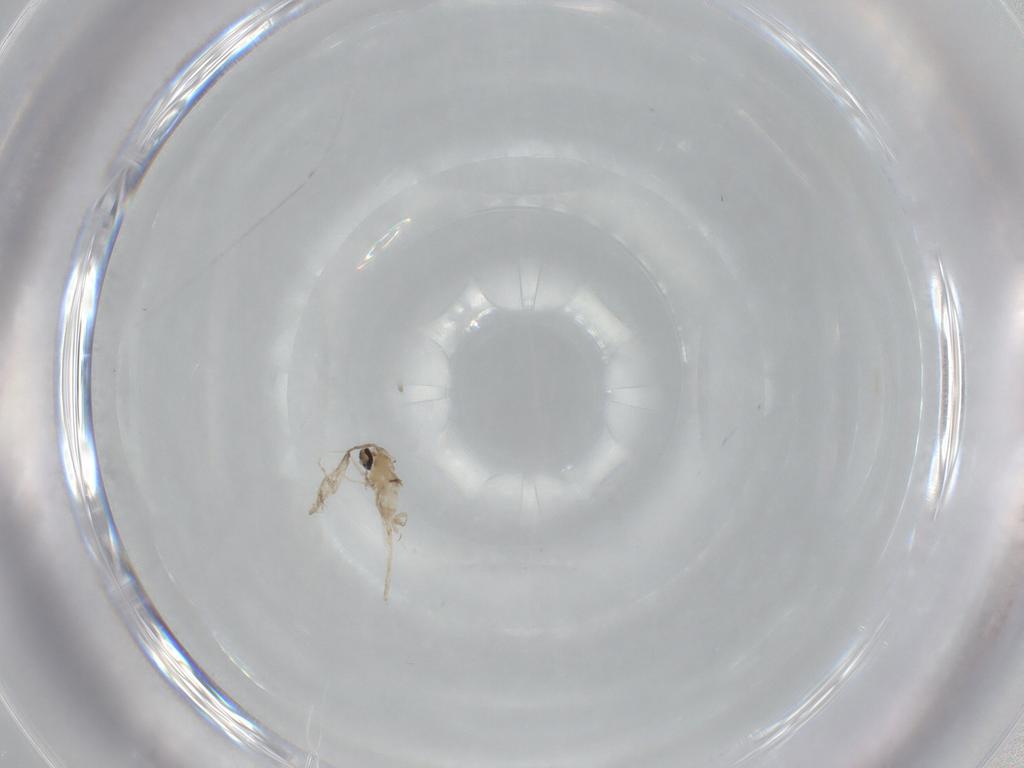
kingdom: Animalia
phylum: Arthropoda
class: Insecta
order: Diptera
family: Cecidomyiidae
